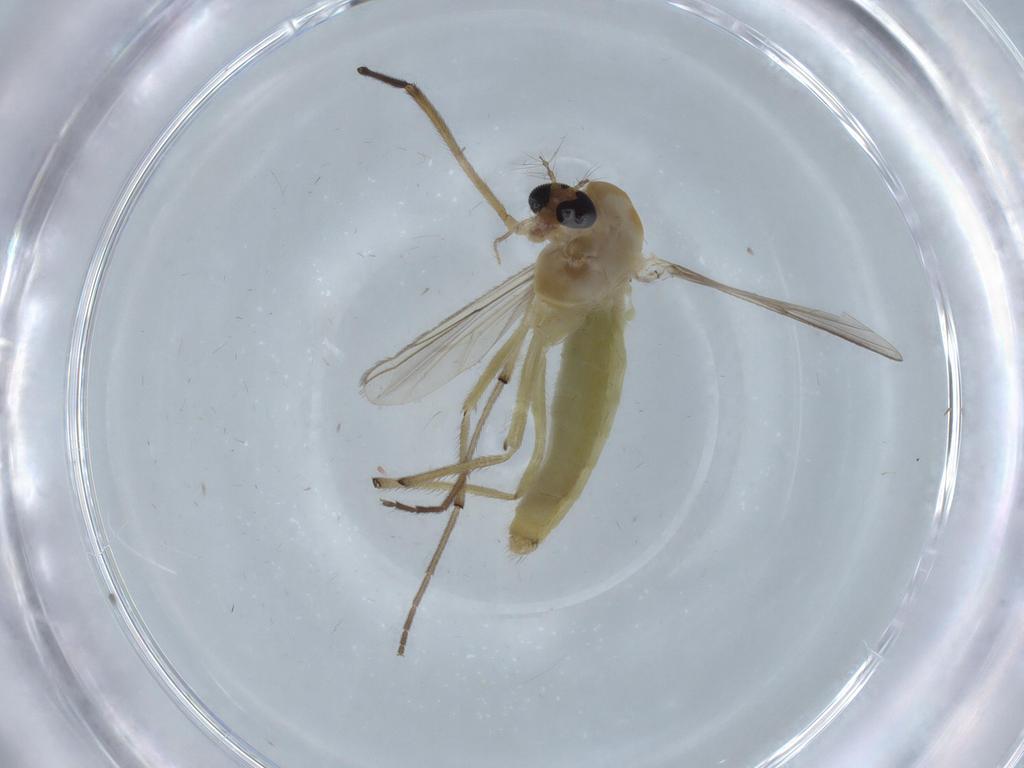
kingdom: Animalia
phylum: Arthropoda
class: Insecta
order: Diptera
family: Chironomidae
